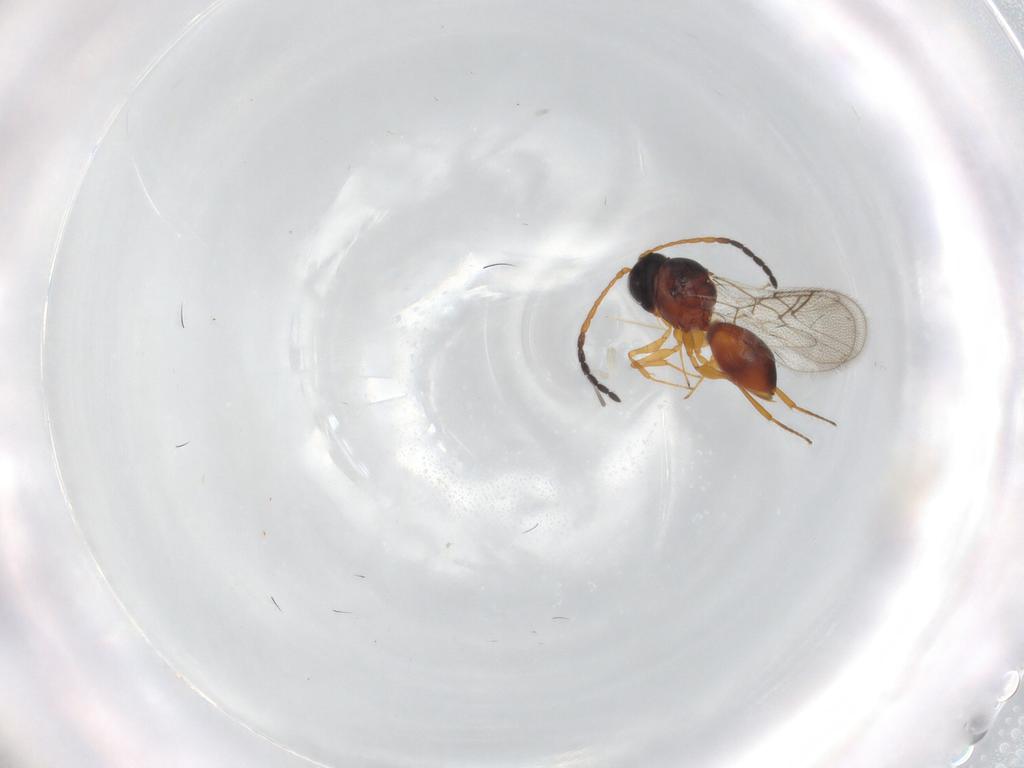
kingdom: Animalia
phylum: Arthropoda
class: Insecta
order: Hymenoptera
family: Figitidae
